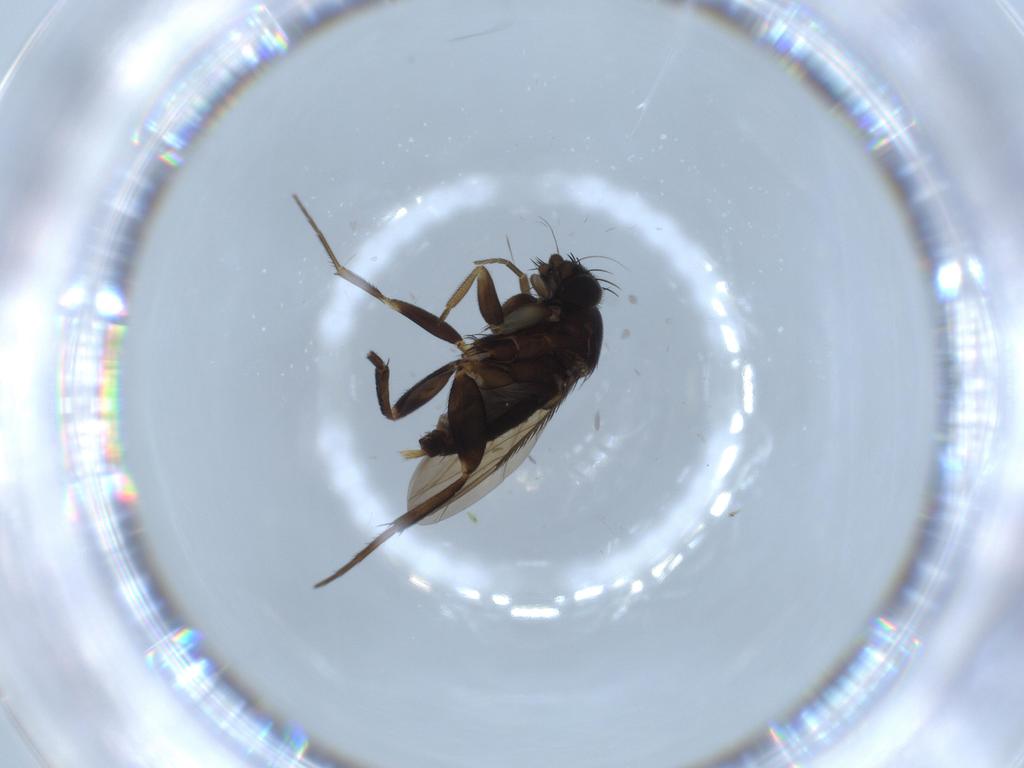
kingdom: Animalia
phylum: Arthropoda
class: Insecta
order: Diptera
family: Phoridae
